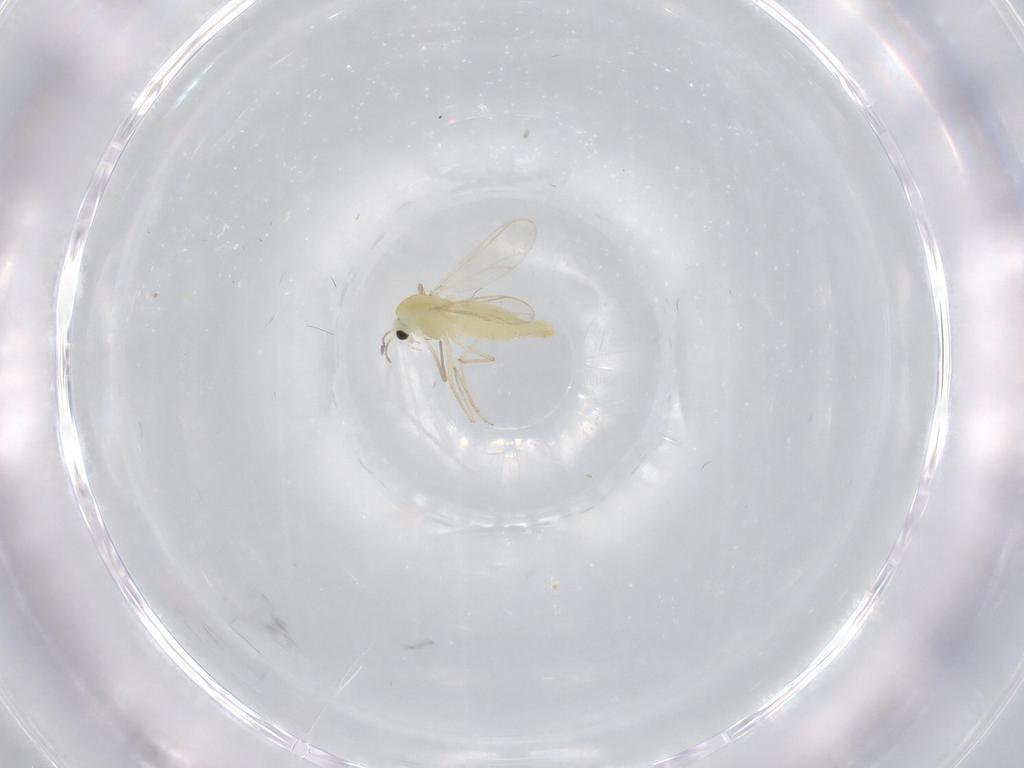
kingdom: Animalia
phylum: Arthropoda
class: Insecta
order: Diptera
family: Chironomidae
